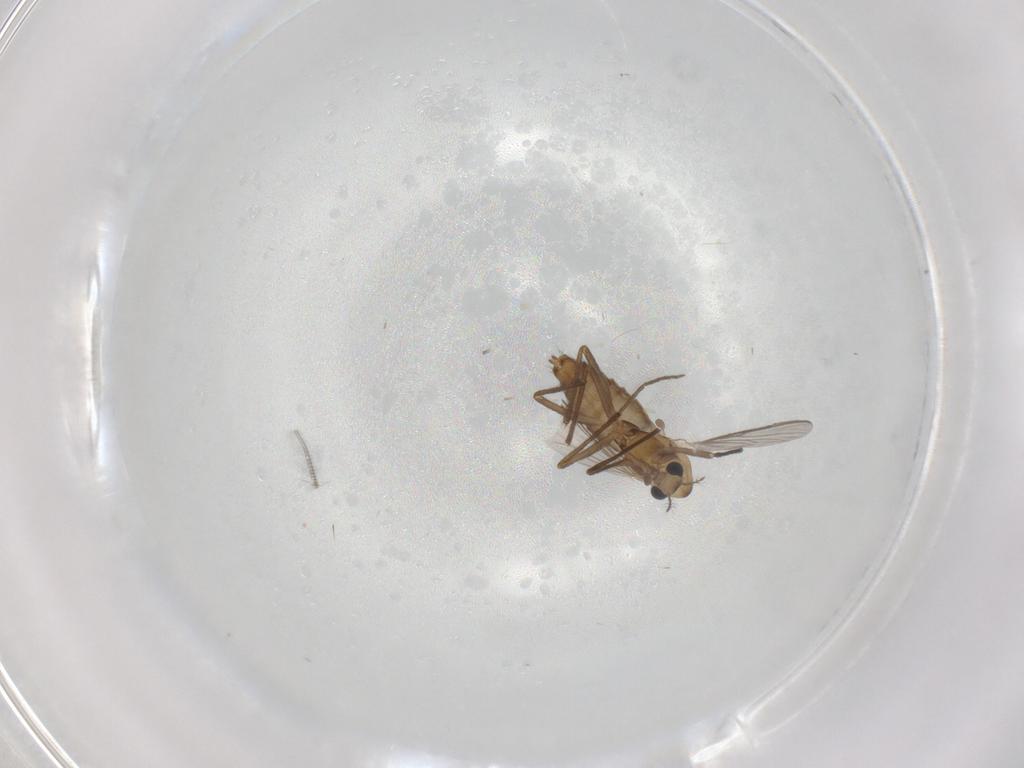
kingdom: Animalia
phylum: Arthropoda
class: Insecta
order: Diptera
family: Chironomidae
